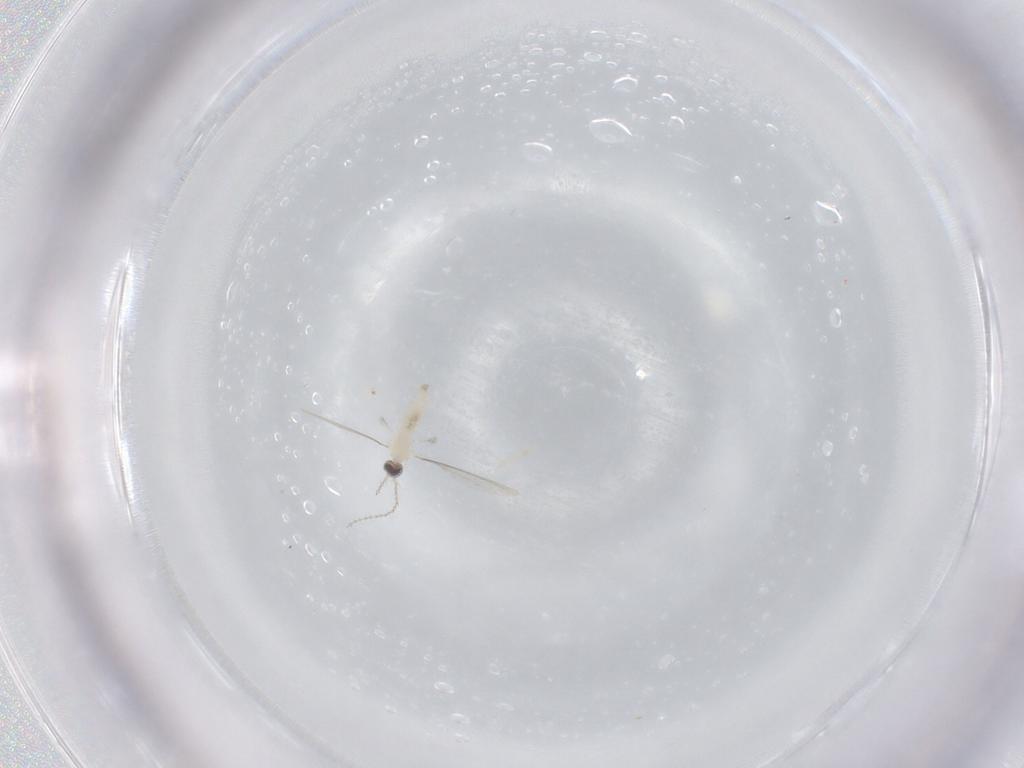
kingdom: Animalia
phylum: Arthropoda
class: Insecta
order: Diptera
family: Cecidomyiidae
